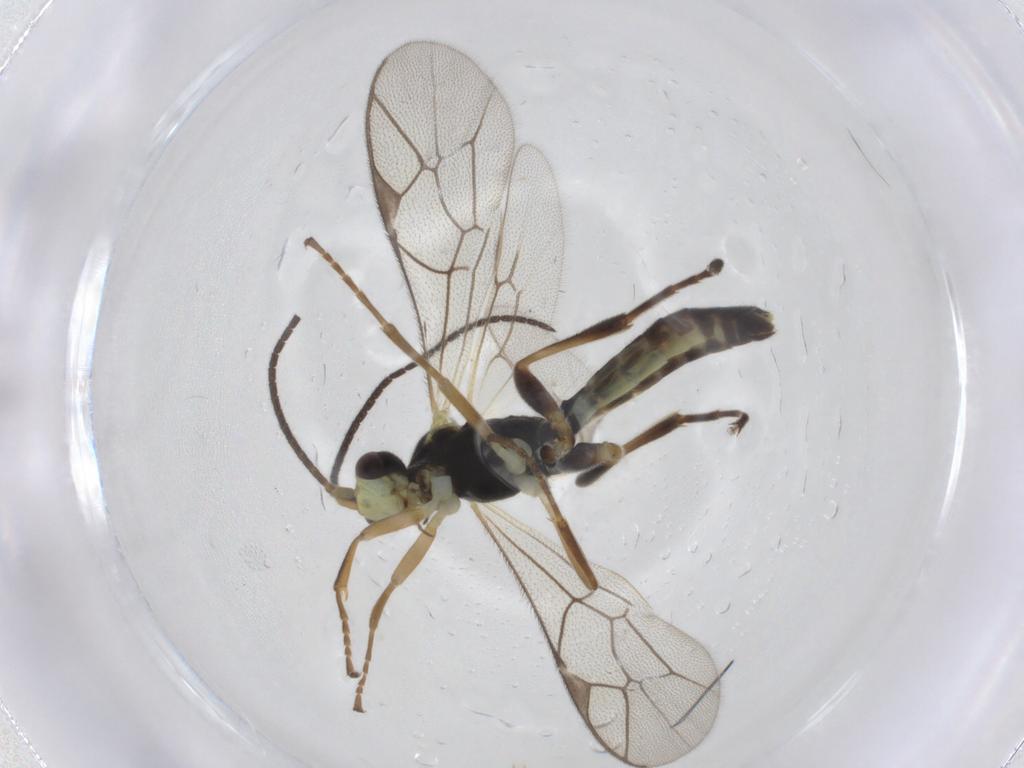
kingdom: Animalia
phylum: Arthropoda
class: Insecta
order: Hymenoptera
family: Ichneumonidae
